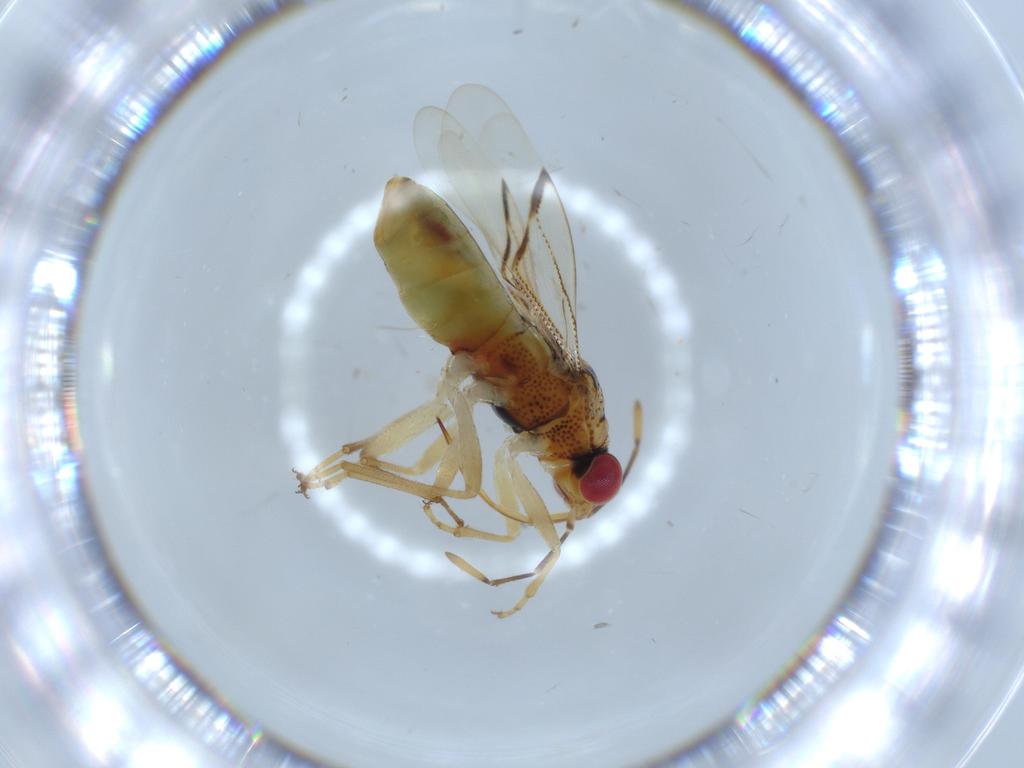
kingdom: Animalia
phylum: Arthropoda
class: Insecta
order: Hemiptera
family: Geocoridae
